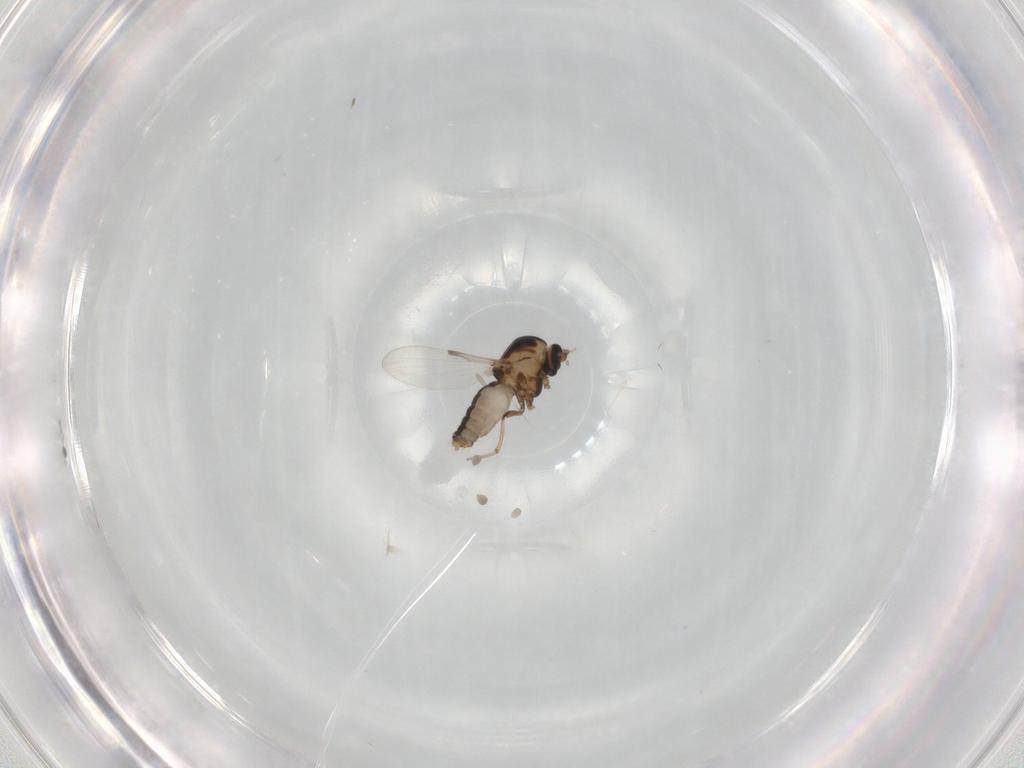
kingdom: Animalia
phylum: Arthropoda
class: Insecta
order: Diptera
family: Sarcophagidae
